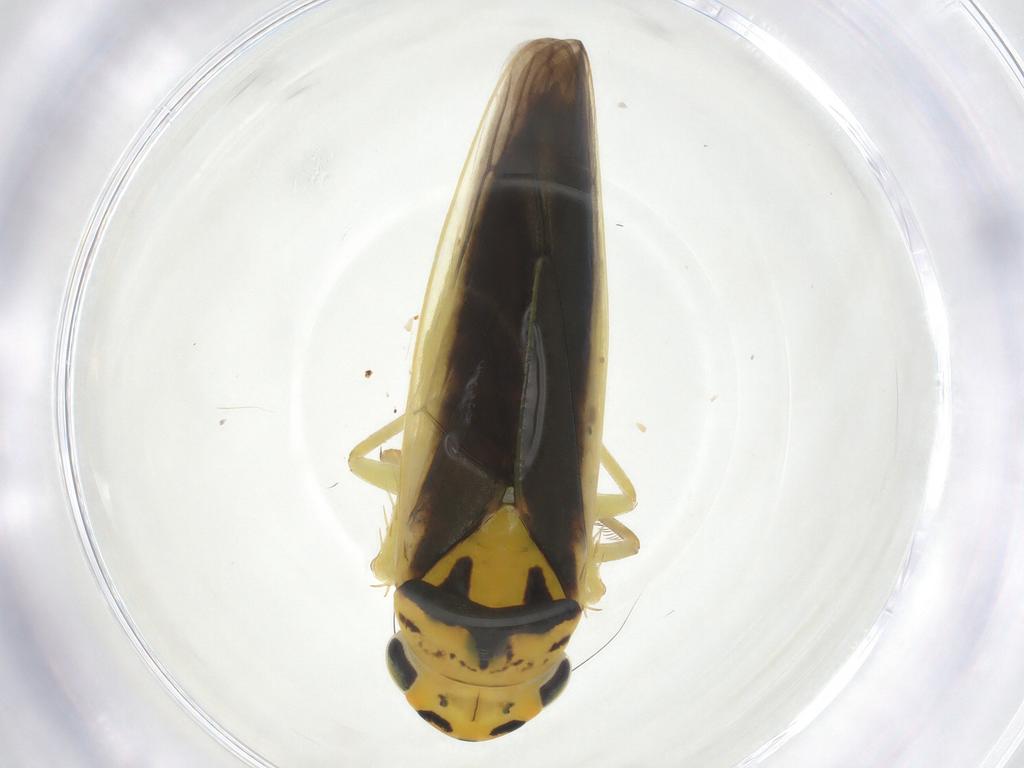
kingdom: Animalia
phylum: Arthropoda
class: Insecta
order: Hemiptera
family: Cicadellidae
